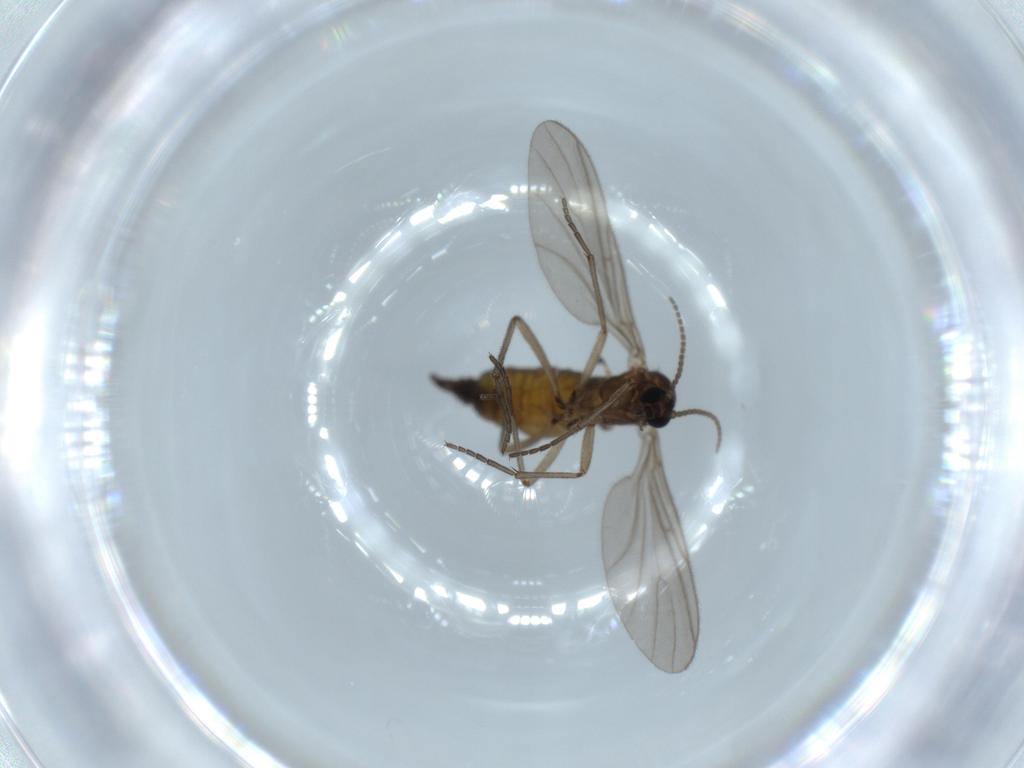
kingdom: Animalia
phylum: Arthropoda
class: Insecta
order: Diptera
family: Sciaridae
